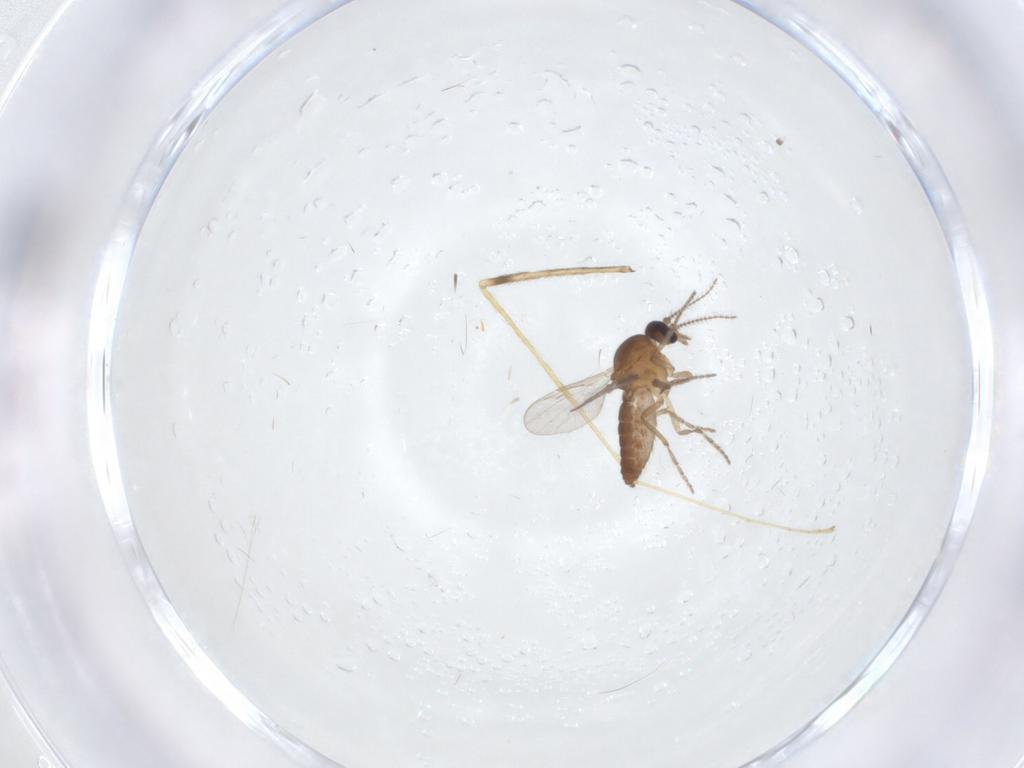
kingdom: Animalia
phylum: Arthropoda
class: Insecta
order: Diptera
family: Ceratopogonidae
